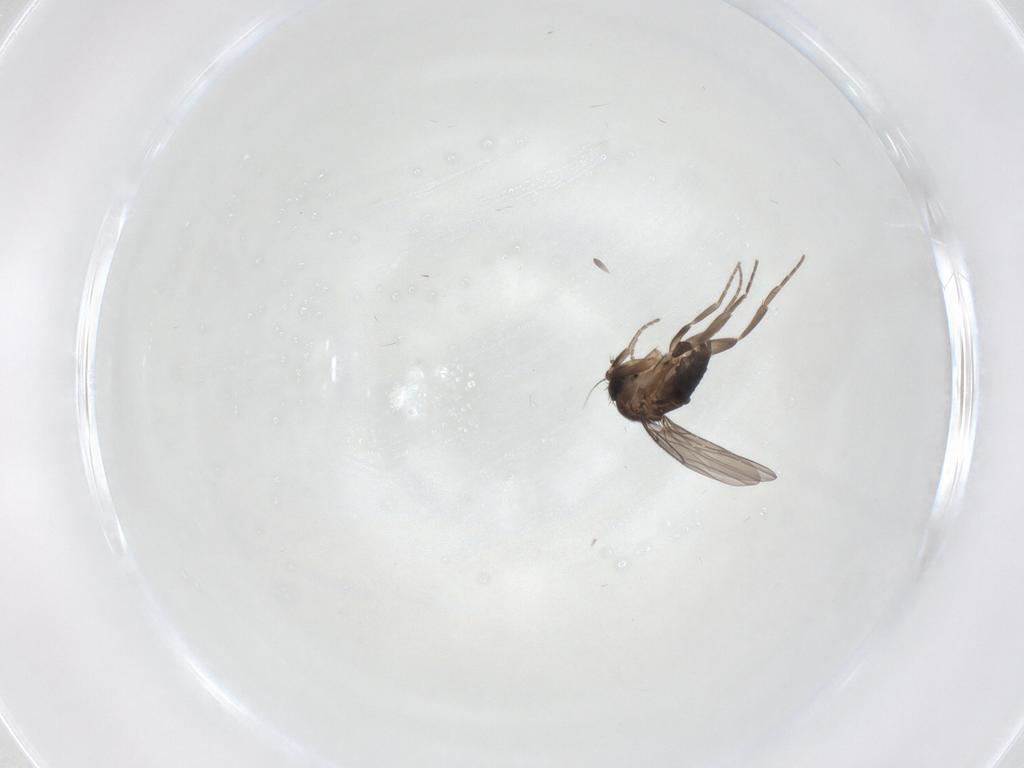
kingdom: Animalia
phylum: Arthropoda
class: Insecta
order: Diptera
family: Phoridae
